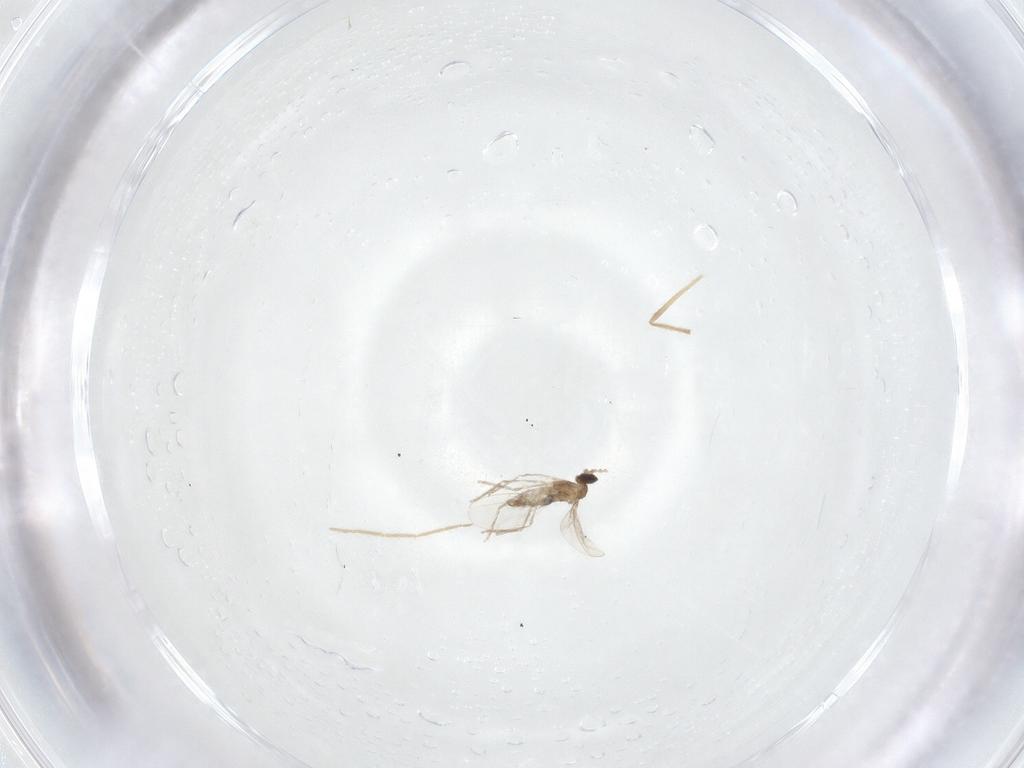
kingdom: Animalia
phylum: Arthropoda
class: Insecta
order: Diptera
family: Cecidomyiidae
